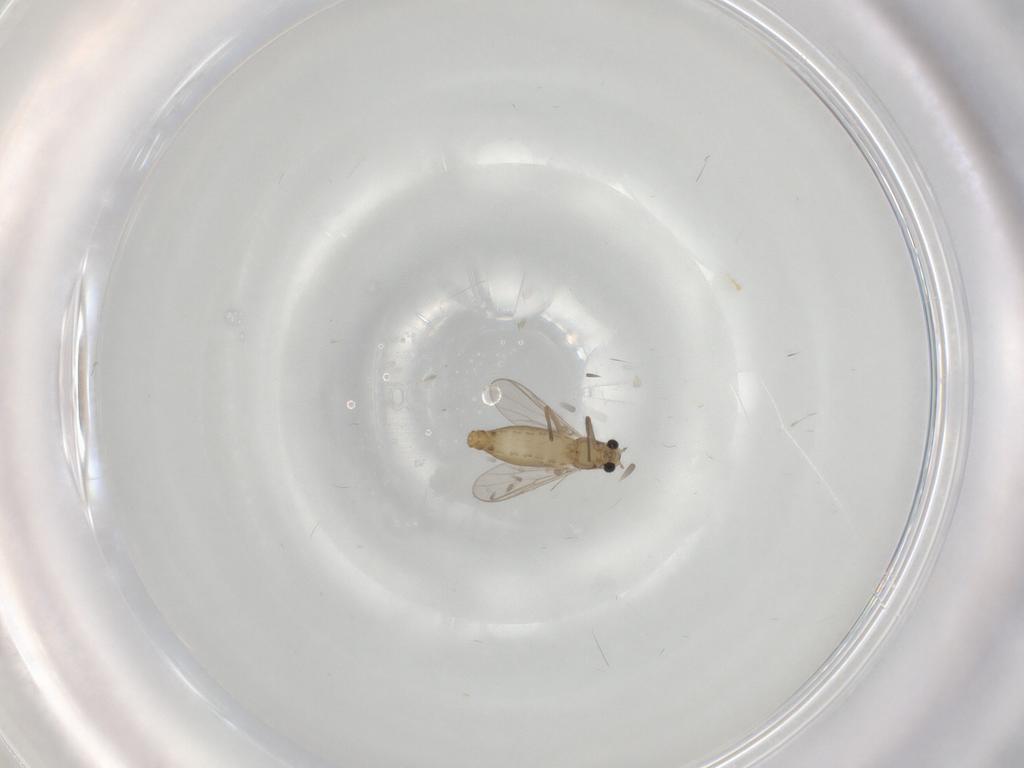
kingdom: Animalia
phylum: Arthropoda
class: Insecta
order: Diptera
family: Chironomidae
